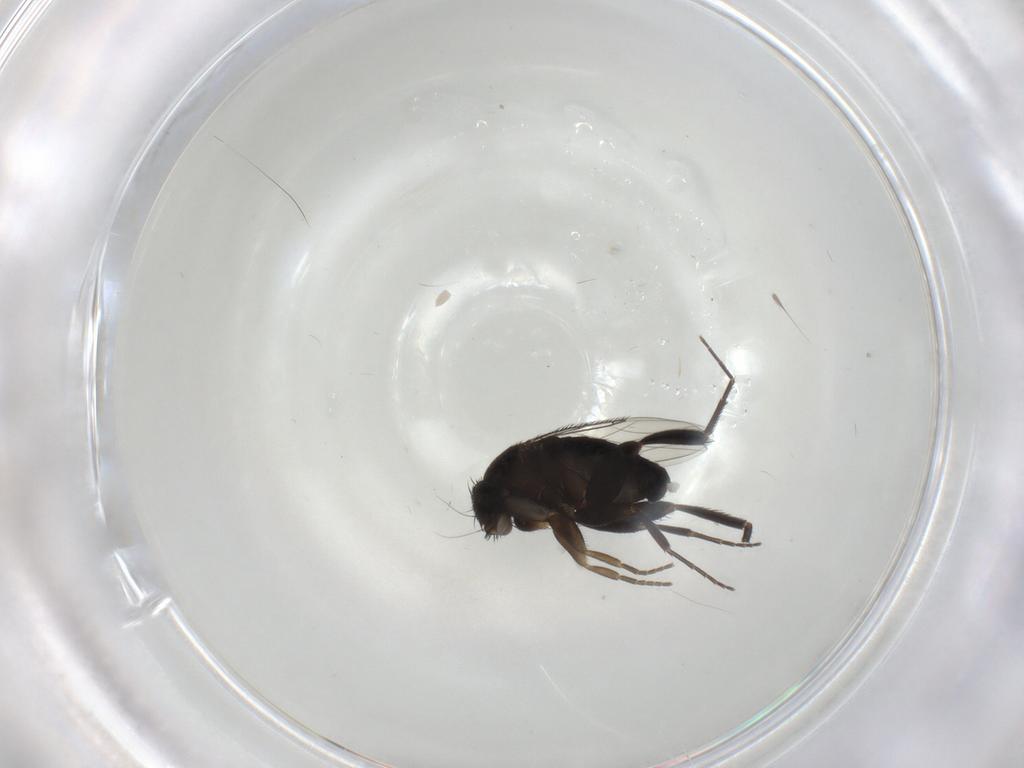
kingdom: Animalia
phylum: Arthropoda
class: Insecta
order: Diptera
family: Phoridae
